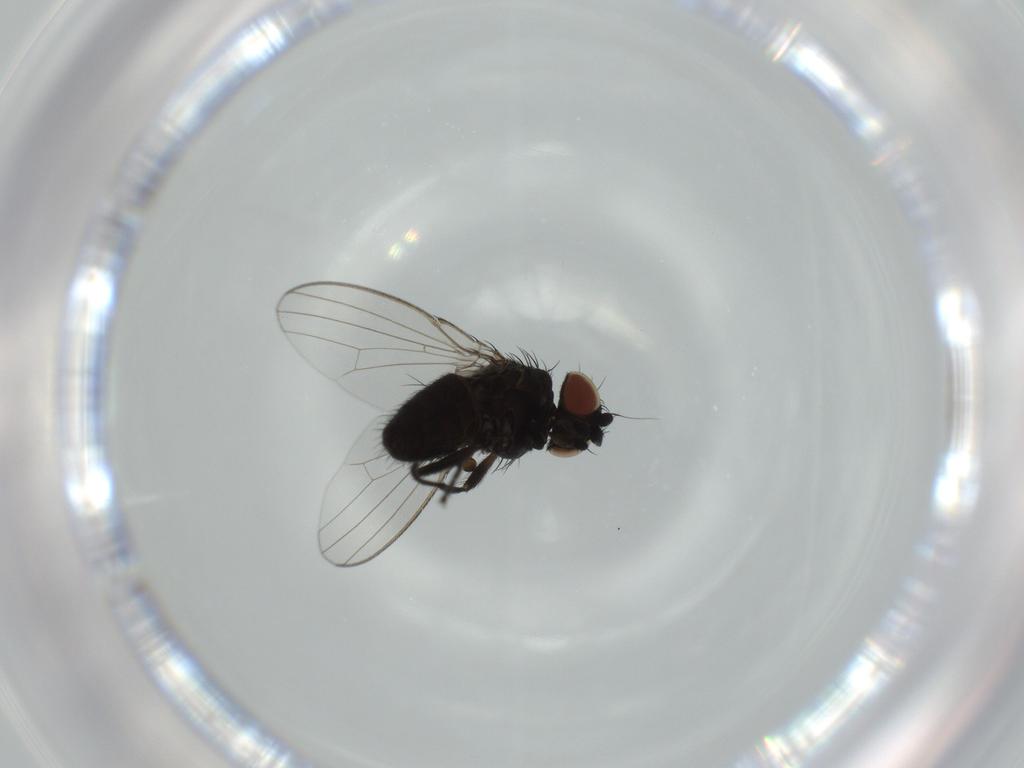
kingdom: Animalia
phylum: Arthropoda
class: Insecta
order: Diptera
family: Milichiidae
